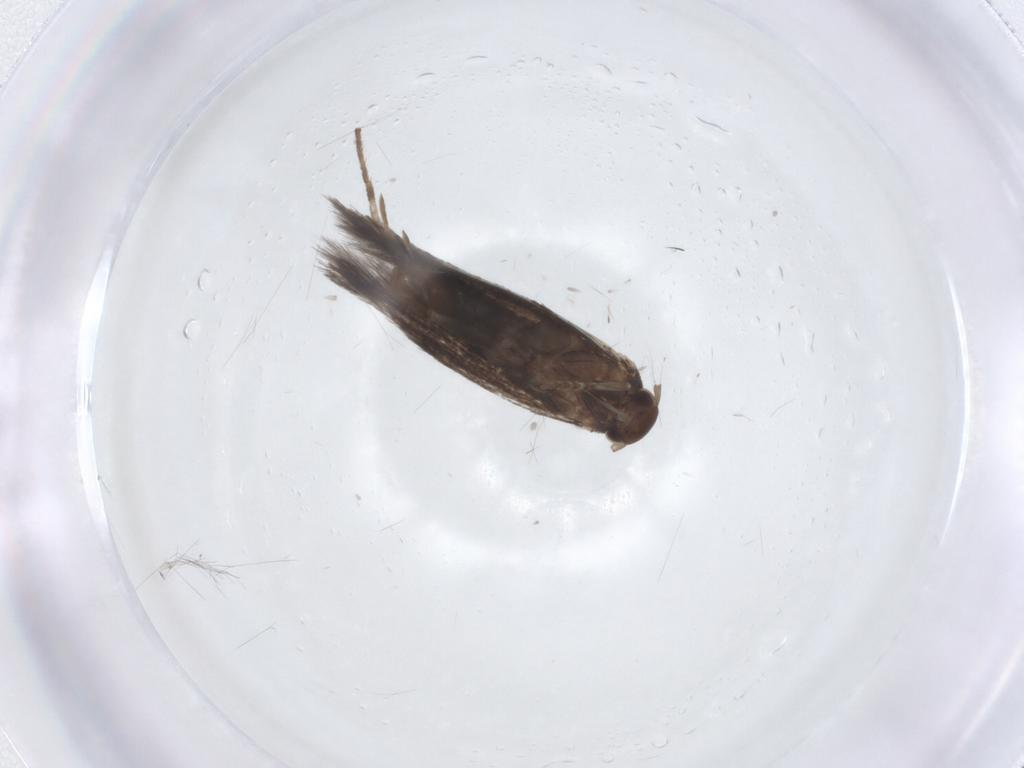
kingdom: Animalia
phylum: Arthropoda
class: Insecta
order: Lepidoptera
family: Elachistidae
